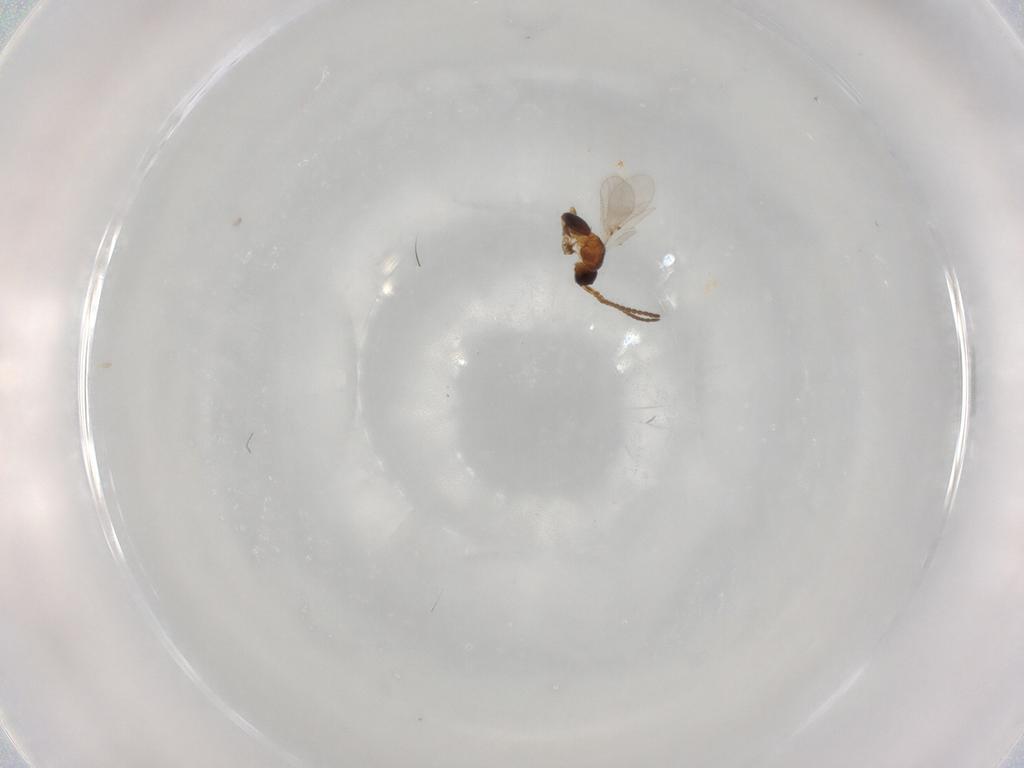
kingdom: Animalia
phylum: Arthropoda
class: Insecta
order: Hymenoptera
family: Diapriidae
